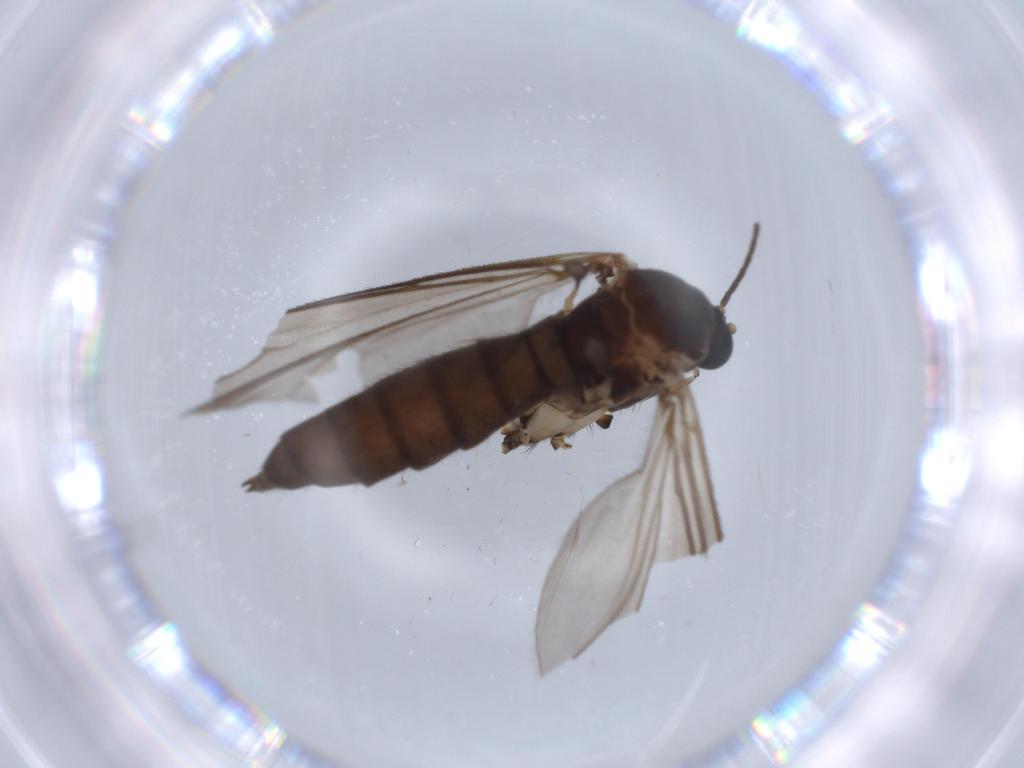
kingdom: Animalia
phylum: Arthropoda
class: Insecta
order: Diptera
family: Sciaridae
